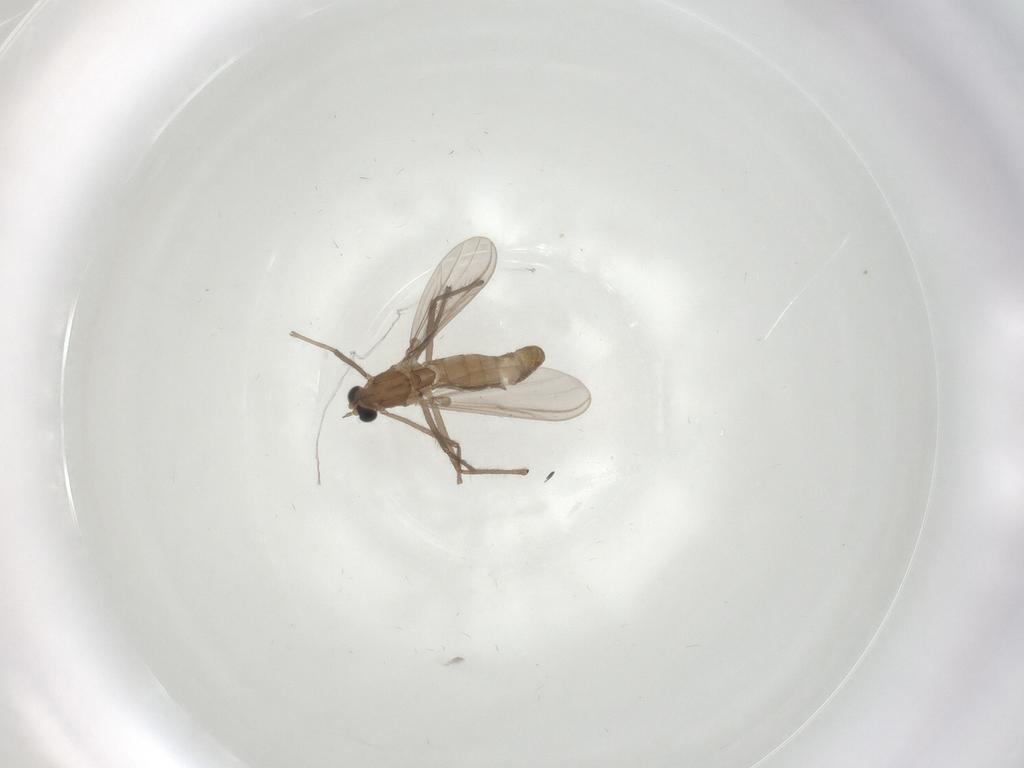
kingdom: Animalia
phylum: Arthropoda
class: Insecta
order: Diptera
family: Chironomidae
